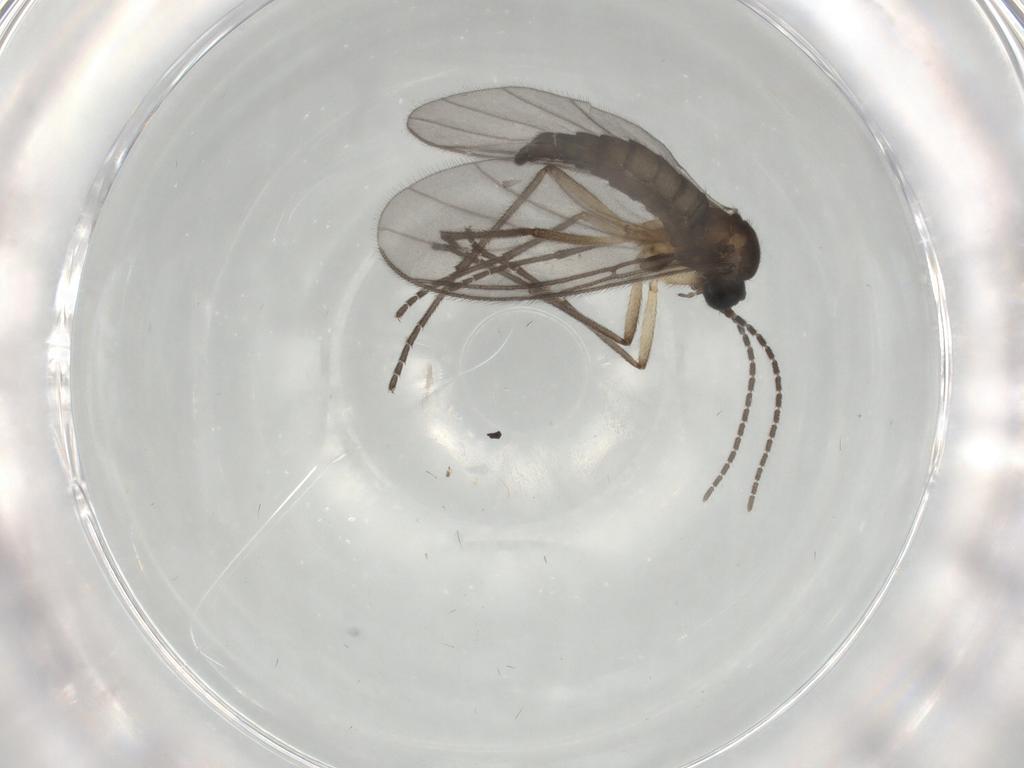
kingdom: Animalia
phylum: Arthropoda
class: Insecta
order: Diptera
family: Sciaridae
